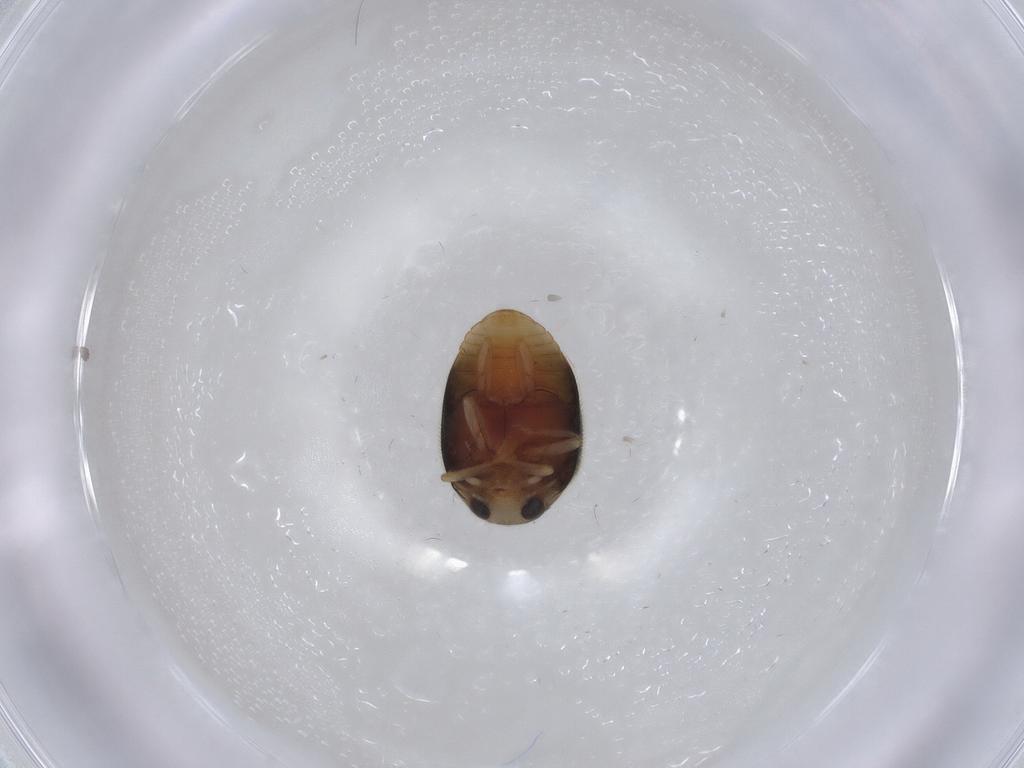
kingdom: Animalia
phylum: Arthropoda
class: Insecta
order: Coleoptera
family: Coccinellidae
